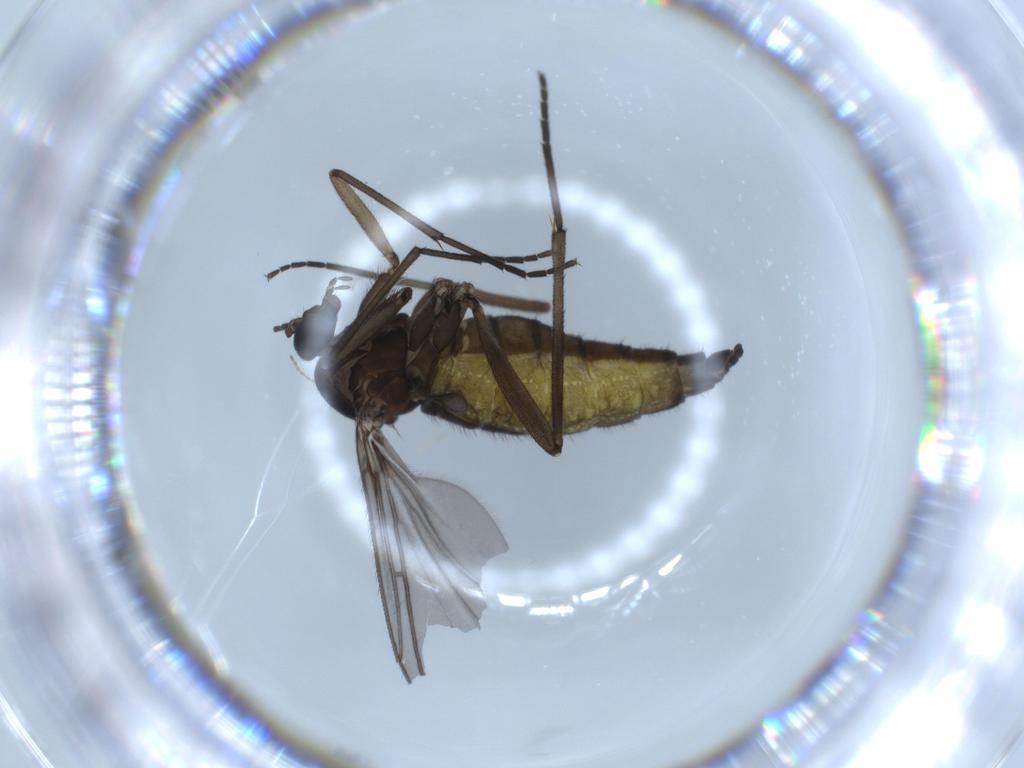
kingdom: Animalia
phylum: Arthropoda
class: Insecta
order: Diptera
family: Sciaridae
